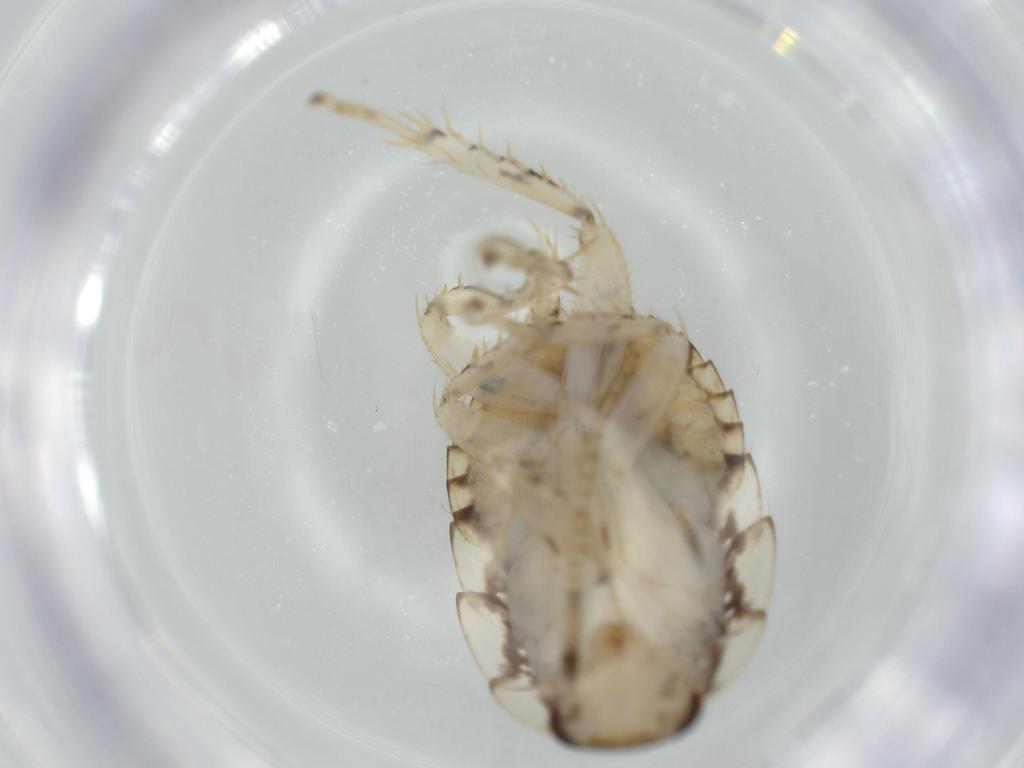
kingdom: Animalia
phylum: Arthropoda
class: Insecta
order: Blattodea
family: Ectobiidae
